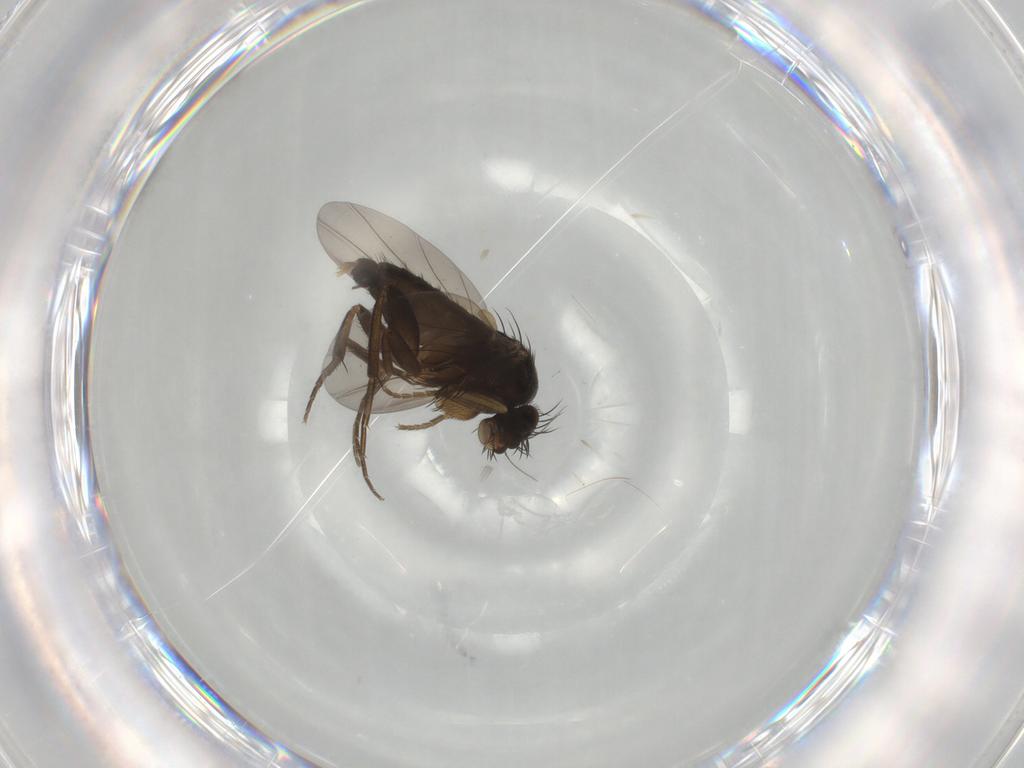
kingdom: Animalia
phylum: Arthropoda
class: Insecta
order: Diptera
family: Phoridae
